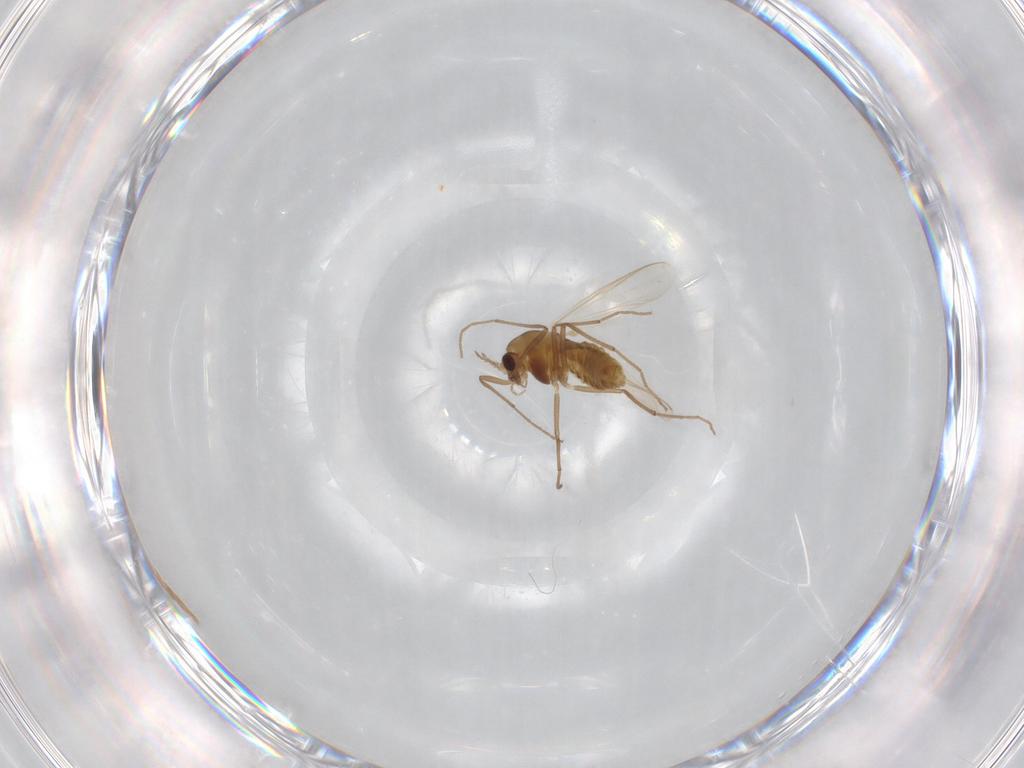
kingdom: Animalia
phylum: Arthropoda
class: Insecta
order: Diptera
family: Chironomidae
